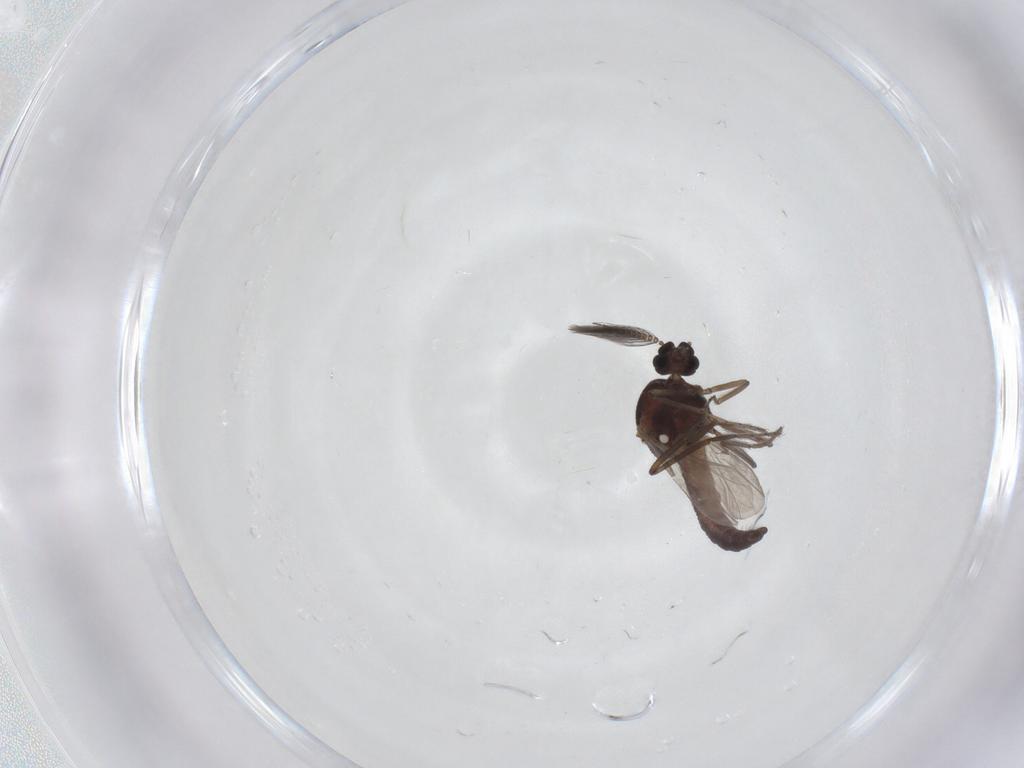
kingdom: Animalia
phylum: Arthropoda
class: Insecta
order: Diptera
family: Ceratopogonidae
